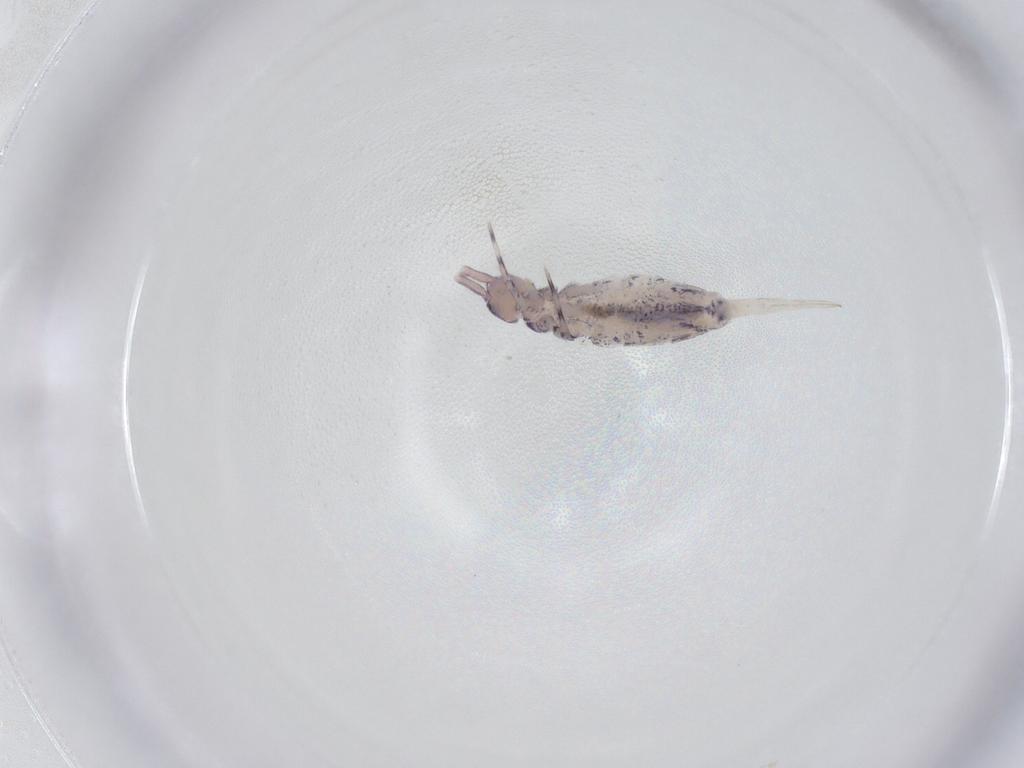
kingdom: Animalia
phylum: Arthropoda
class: Collembola
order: Entomobryomorpha
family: Entomobryidae
